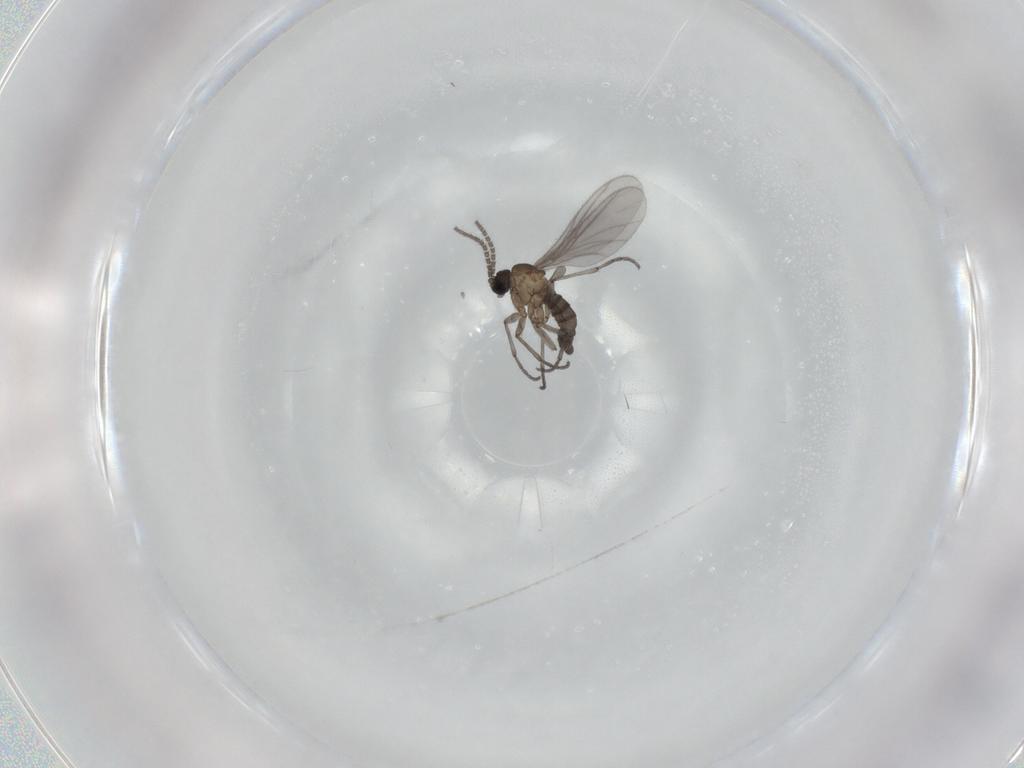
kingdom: Animalia
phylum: Arthropoda
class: Insecta
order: Diptera
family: Sciaridae
